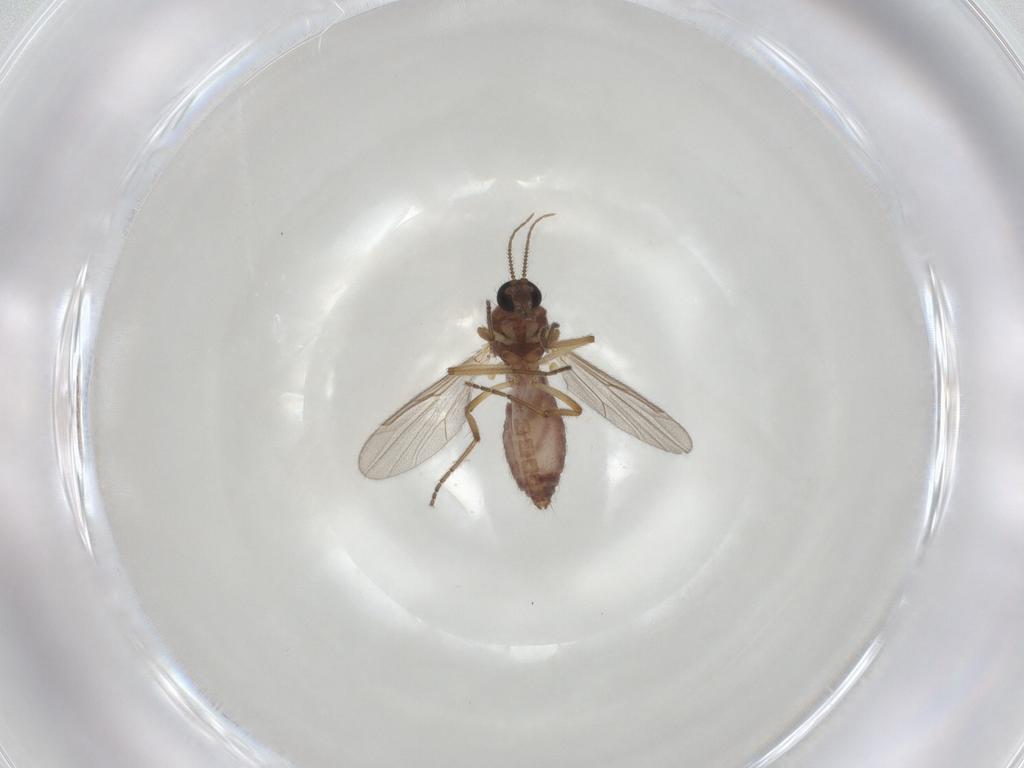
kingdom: Animalia
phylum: Arthropoda
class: Insecta
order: Diptera
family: Ceratopogonidae
